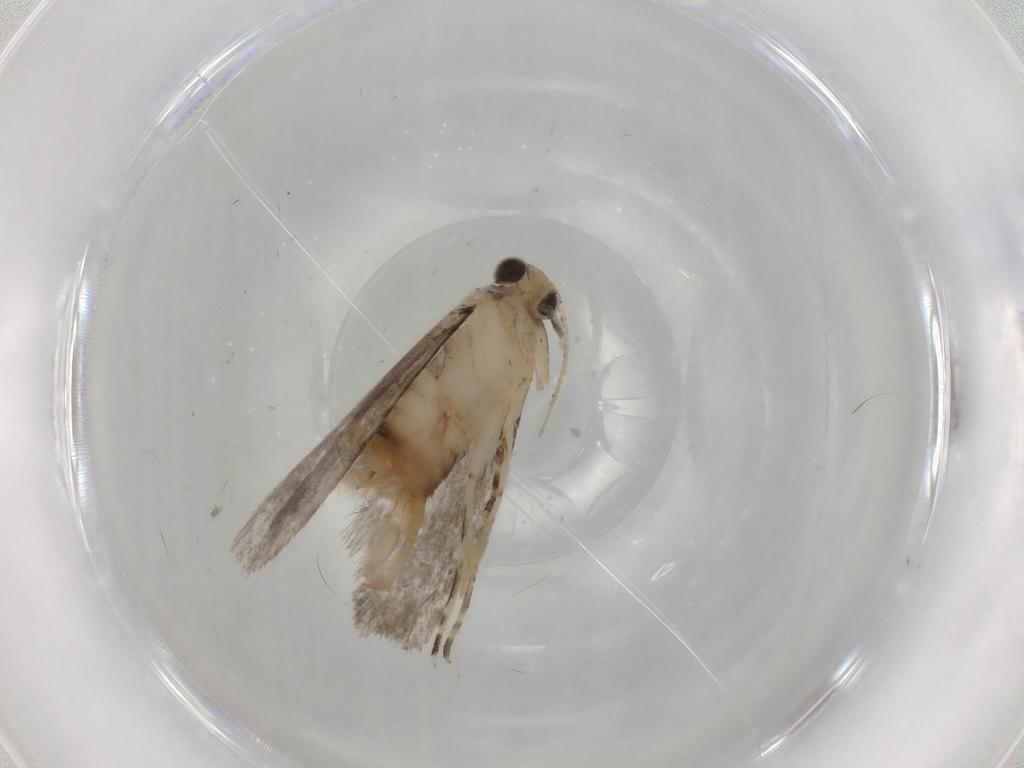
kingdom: Animalia
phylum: Arthropoda
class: Insecta
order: Lepidoptera
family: Tineidae
